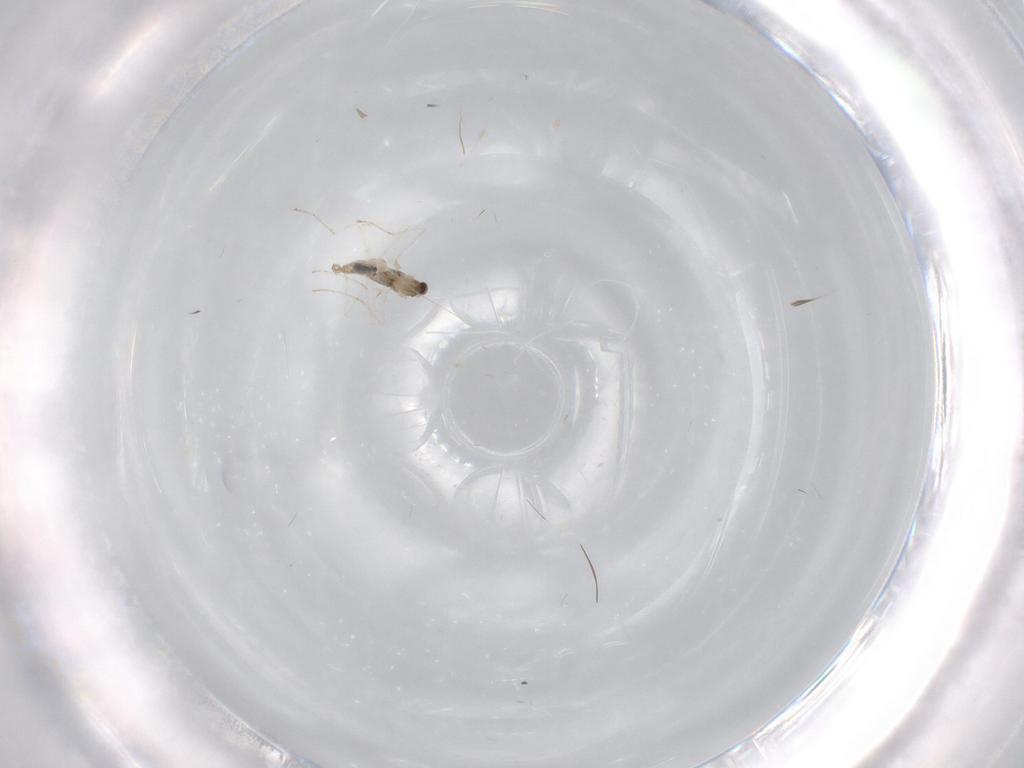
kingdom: Animalia
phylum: Arthropoda
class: Insecta
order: Diptera
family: Cecidomyiidae
